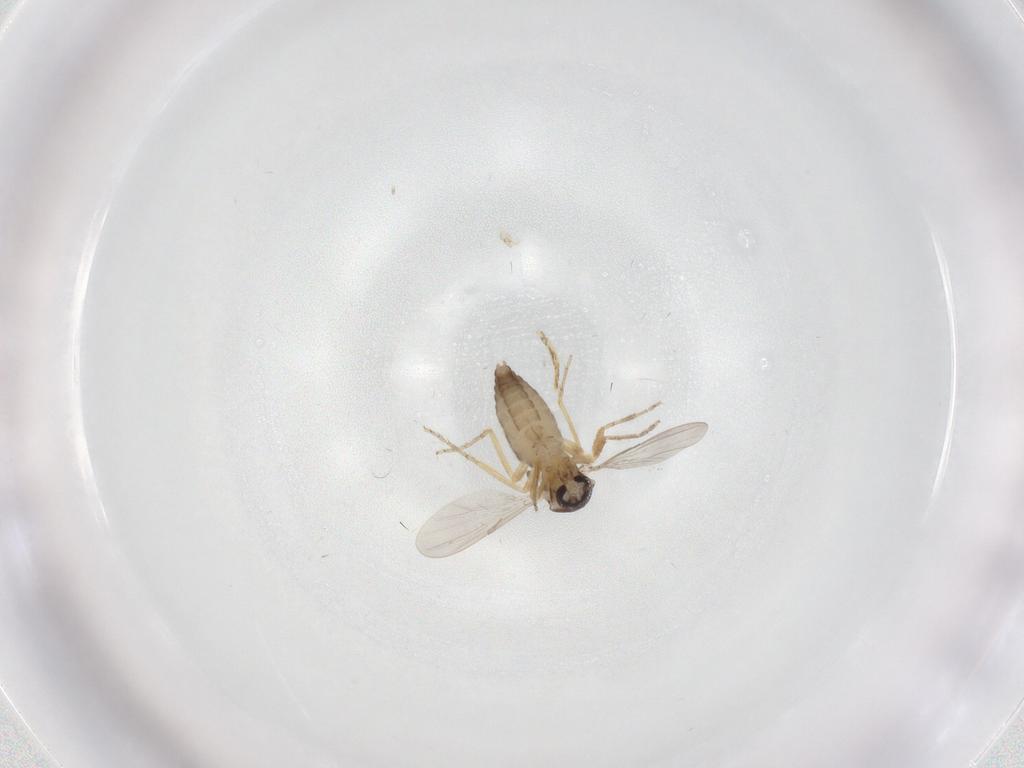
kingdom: Animalia
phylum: Arthropoda
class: Insecta
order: Diptera
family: Ceratopogonidae
